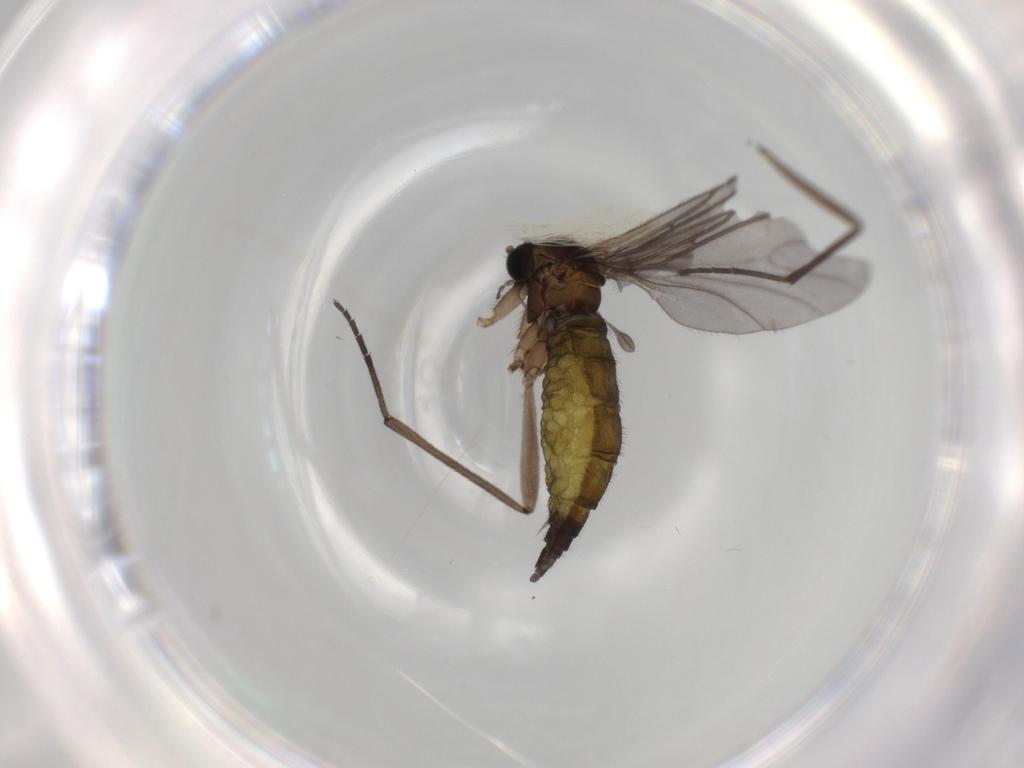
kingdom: Animalia
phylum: Arthropoda
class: Insecta
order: Diptera
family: Sciaridae
